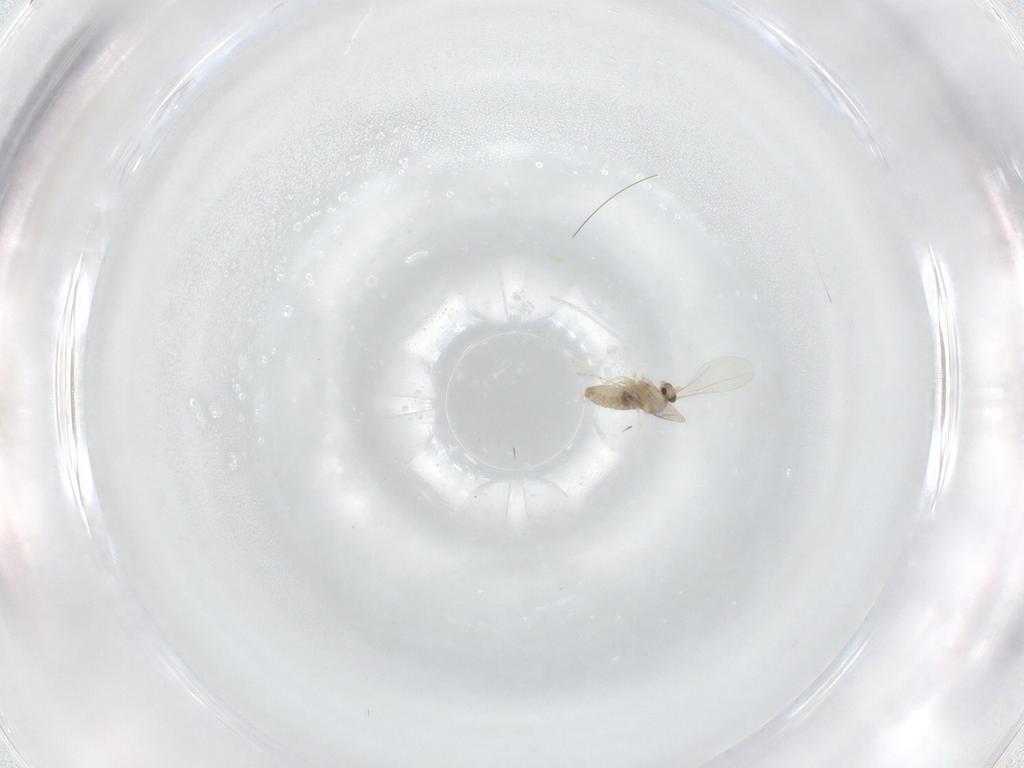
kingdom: Animalia
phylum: Arthropoda
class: Insecta
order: Diptera
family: Cecidomyiidae
